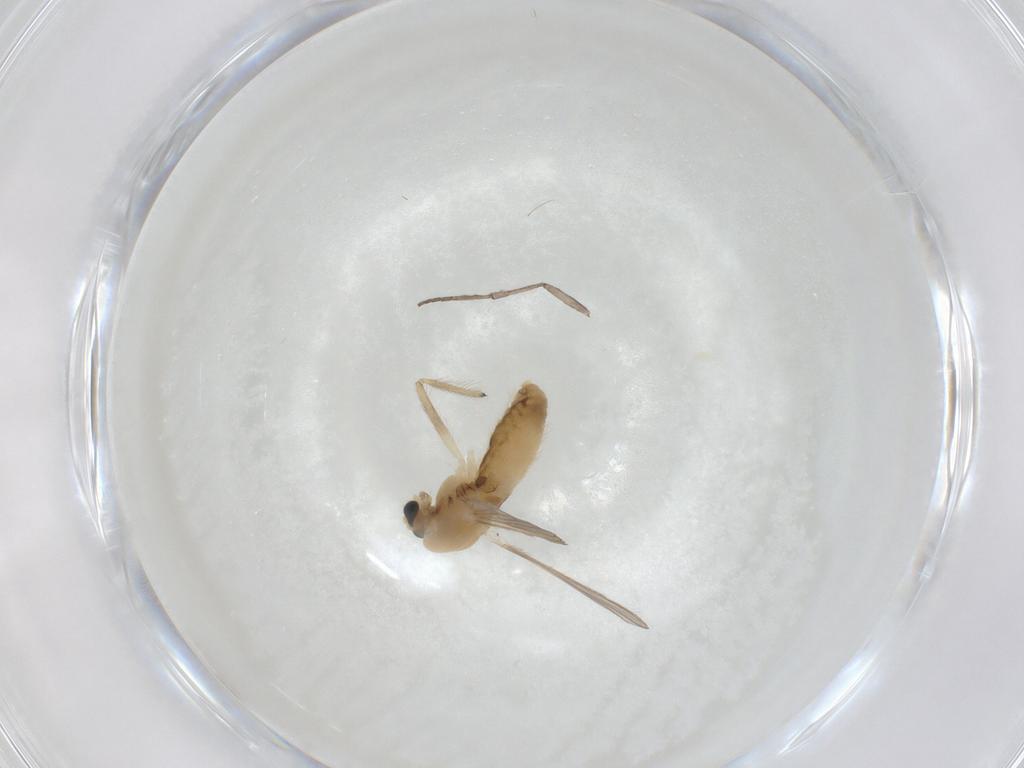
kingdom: Animalia
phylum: Arthropoda
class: Insecta
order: Diptera
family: Chironomidae
